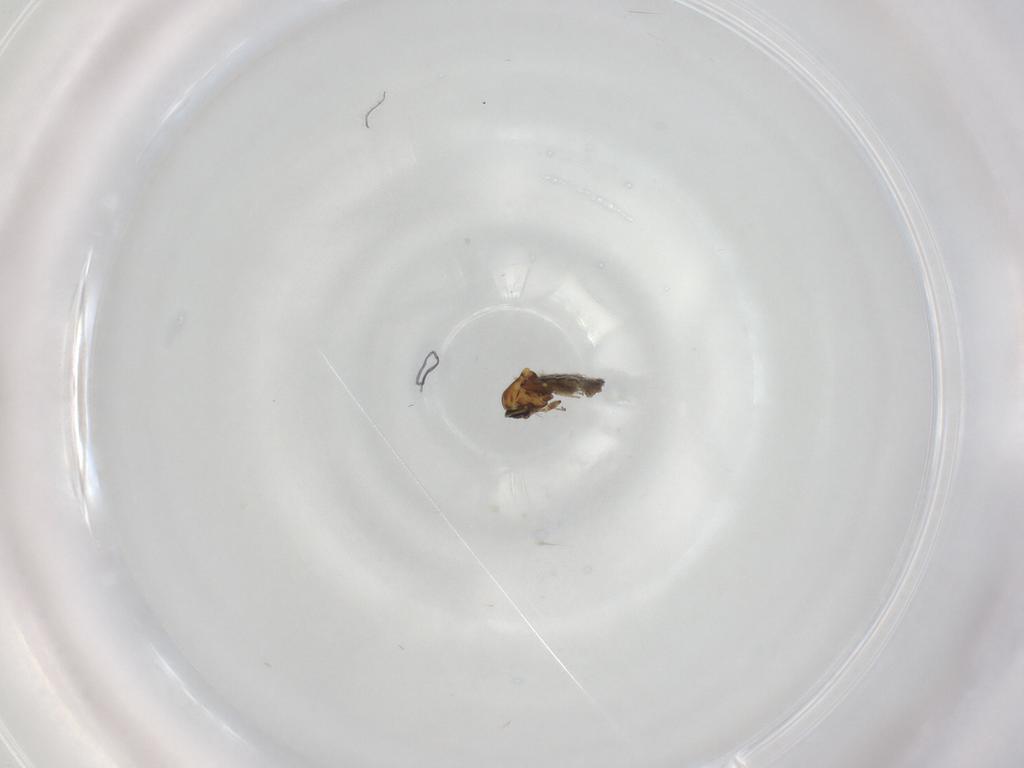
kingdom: Animalia
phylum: Arthropoda
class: Insecta
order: Diptera
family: Ceratopogonidae
